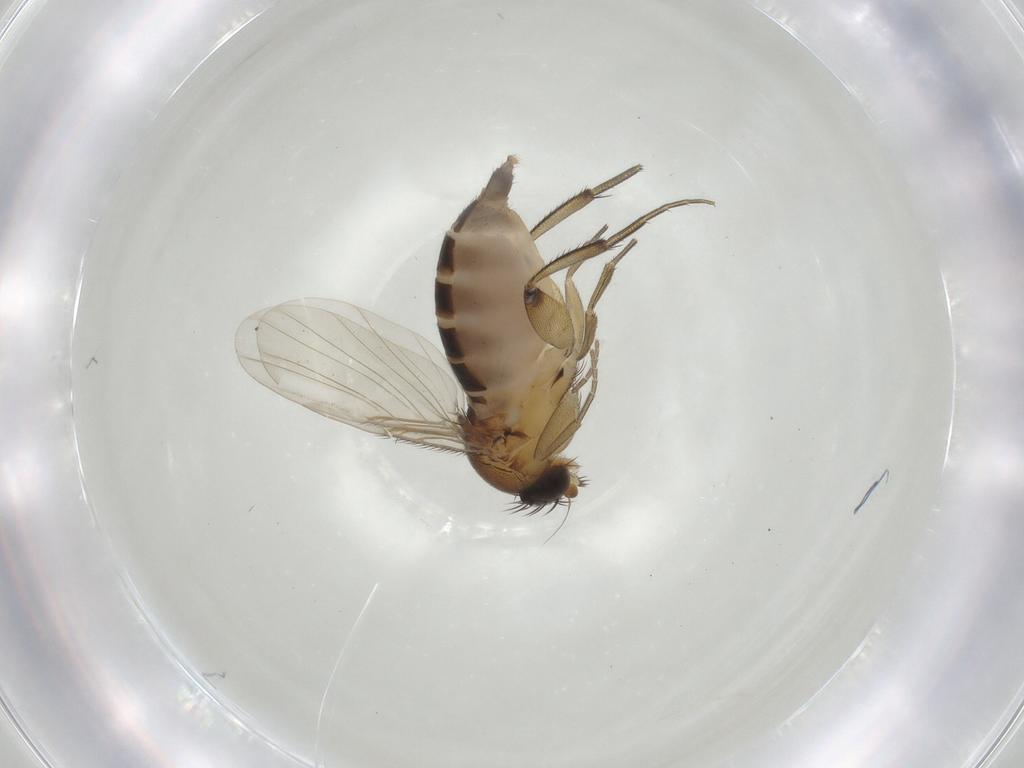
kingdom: Animalia
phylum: Arthropoda
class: Insecta
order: Diptera
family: Phoridae
